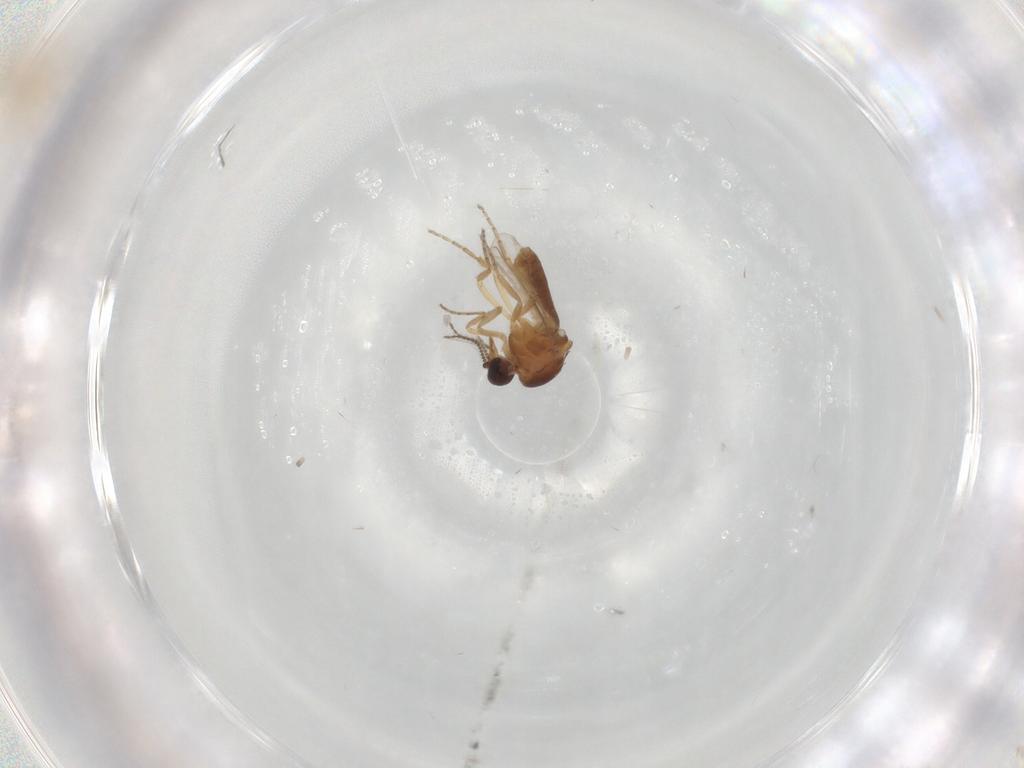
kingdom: Animalia
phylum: Arthropoda
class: Insecta
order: Diptera
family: Ceratopogonidae
